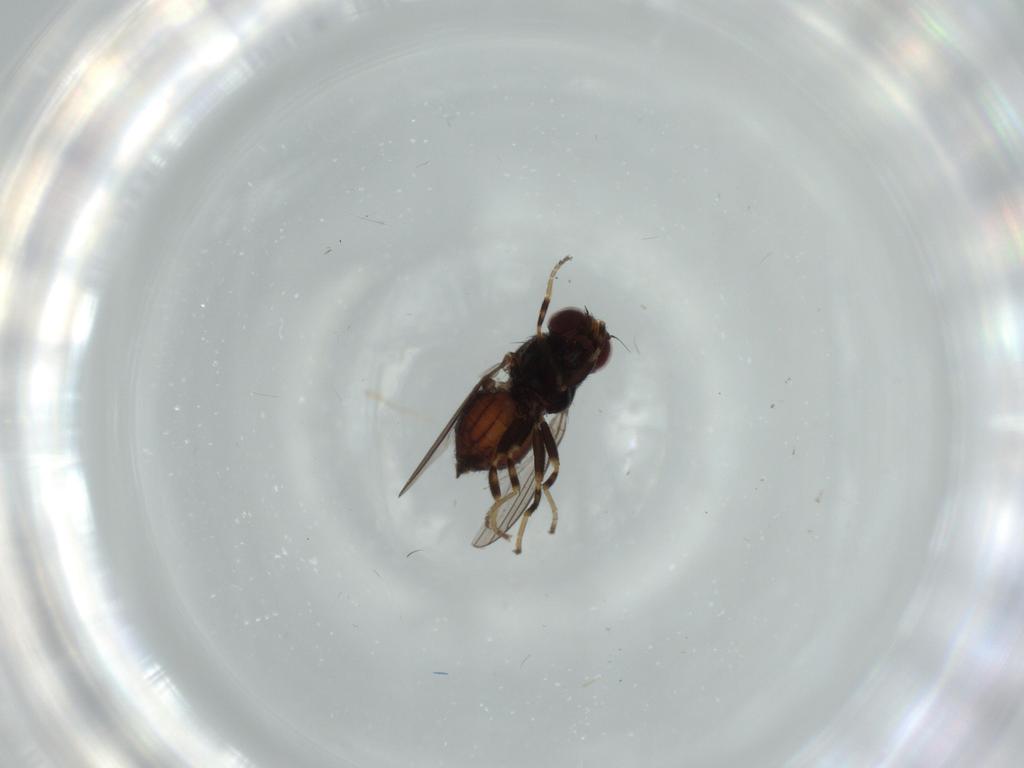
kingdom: Animalia
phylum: Arthropoda
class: Insecta
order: Diptera
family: Chloropidae
